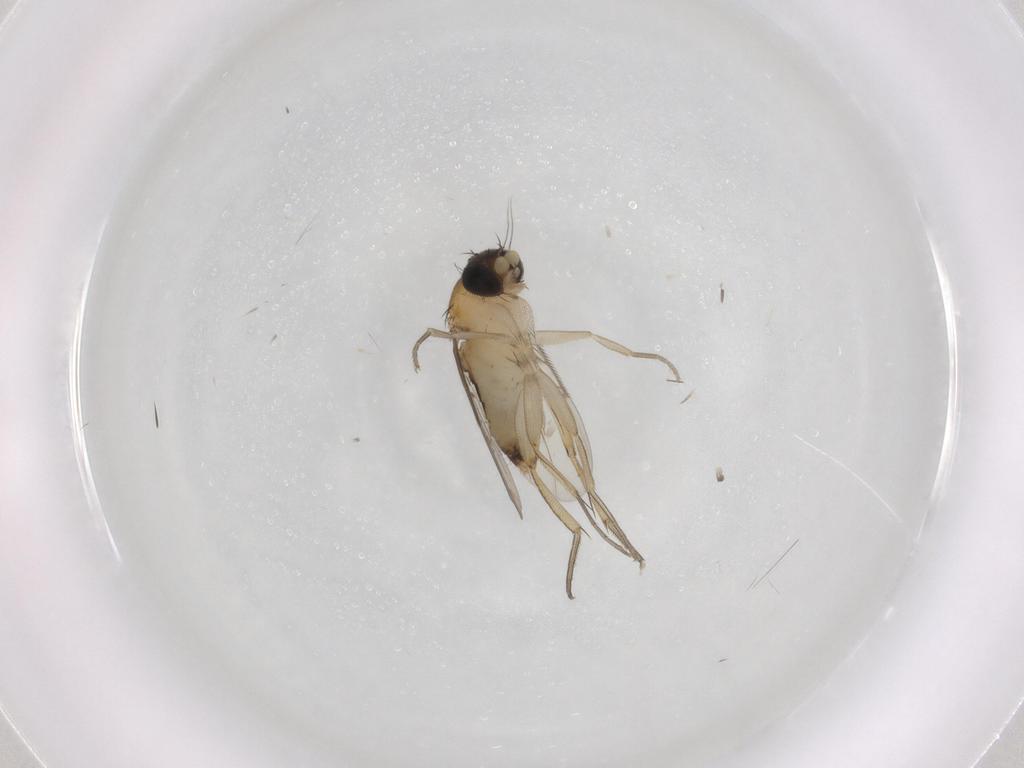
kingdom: Animalia
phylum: Arthropoda
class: Insecta
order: Diptera
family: Phoridae
